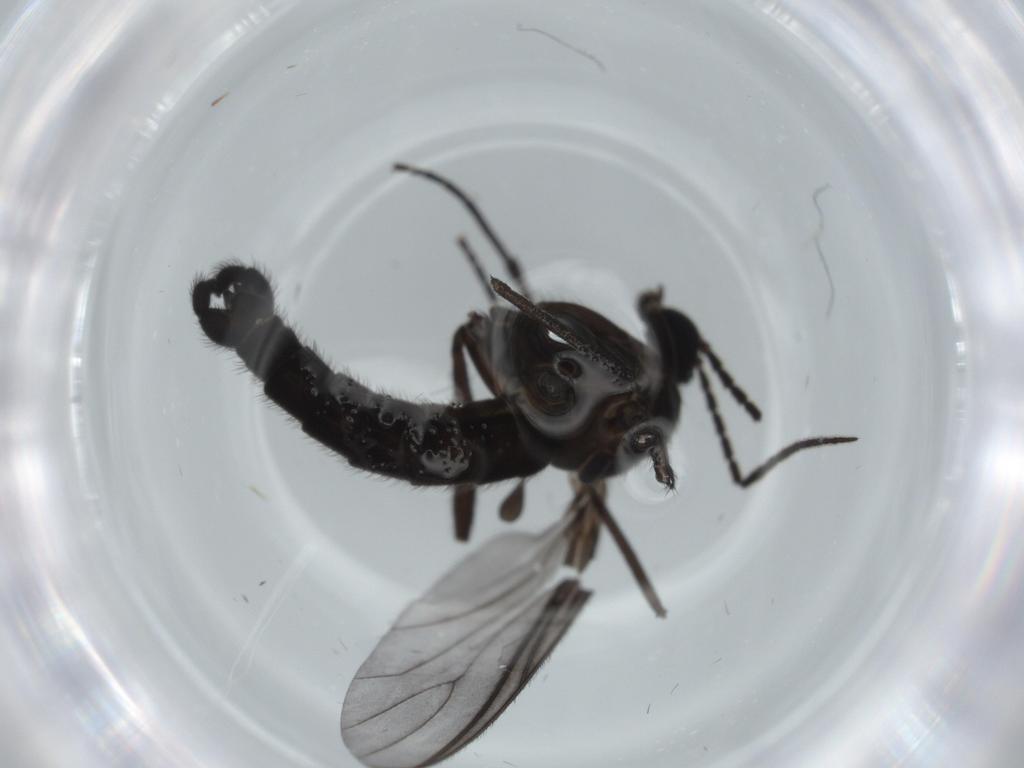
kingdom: Animalia
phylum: Arthropoda
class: Insecta
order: Diptera
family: Chironomidae
